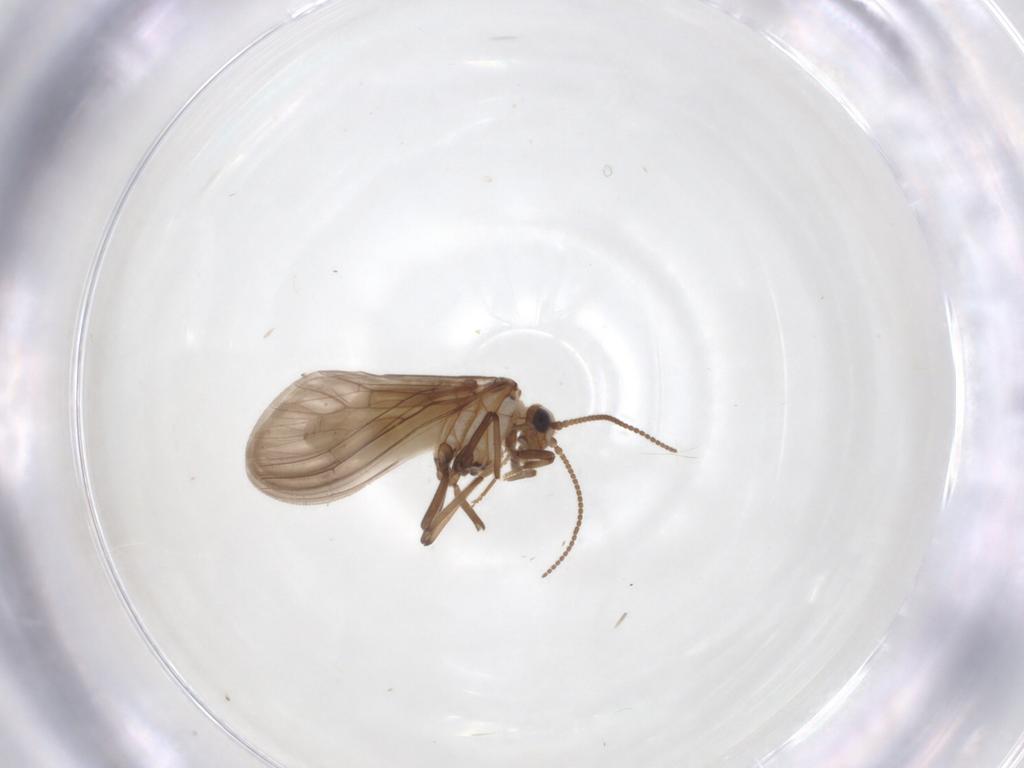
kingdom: Animalia
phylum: Arthropoda
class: Insecta
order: Neuroptera
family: Coniopterygidae
